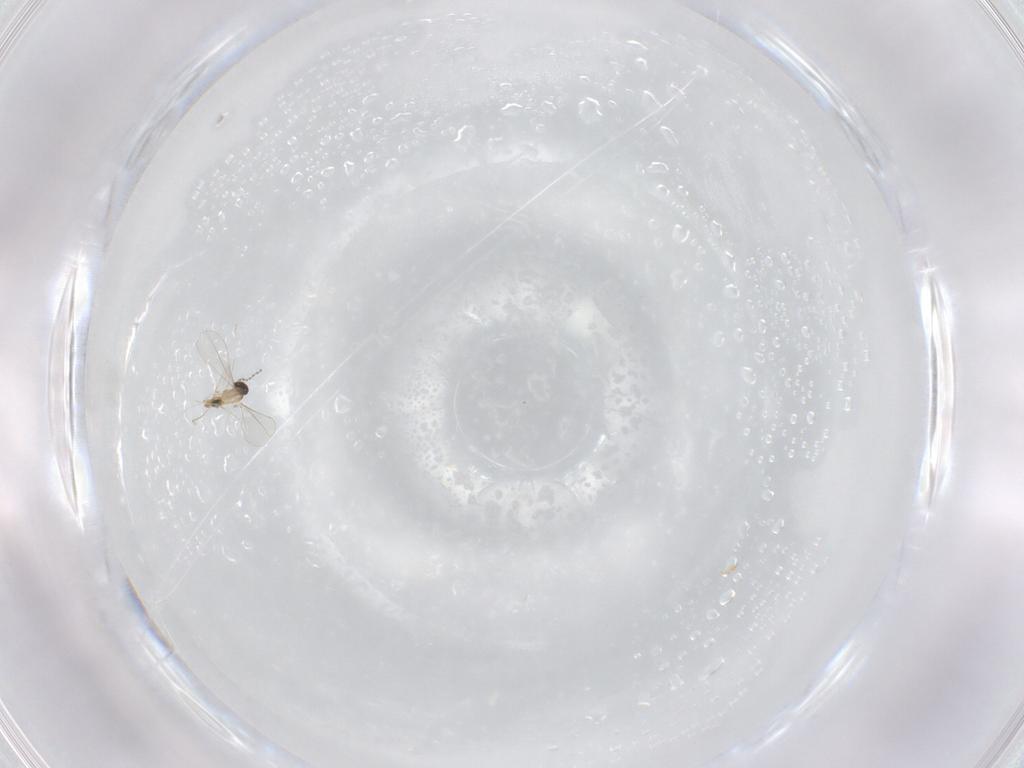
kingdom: Animalia
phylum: Arthropoda
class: Insecta
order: Diptera
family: Cecidomyiidae
